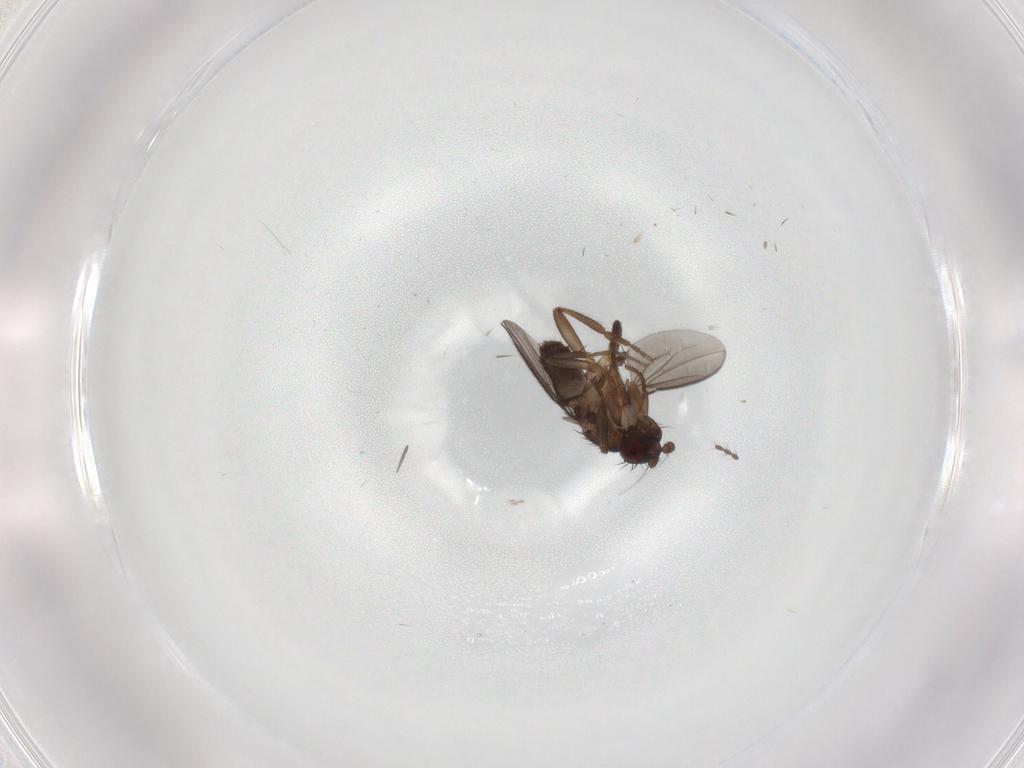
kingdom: Animalia
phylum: Arthropoda
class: Insecta
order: Diptera
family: Sphaeroceridae
